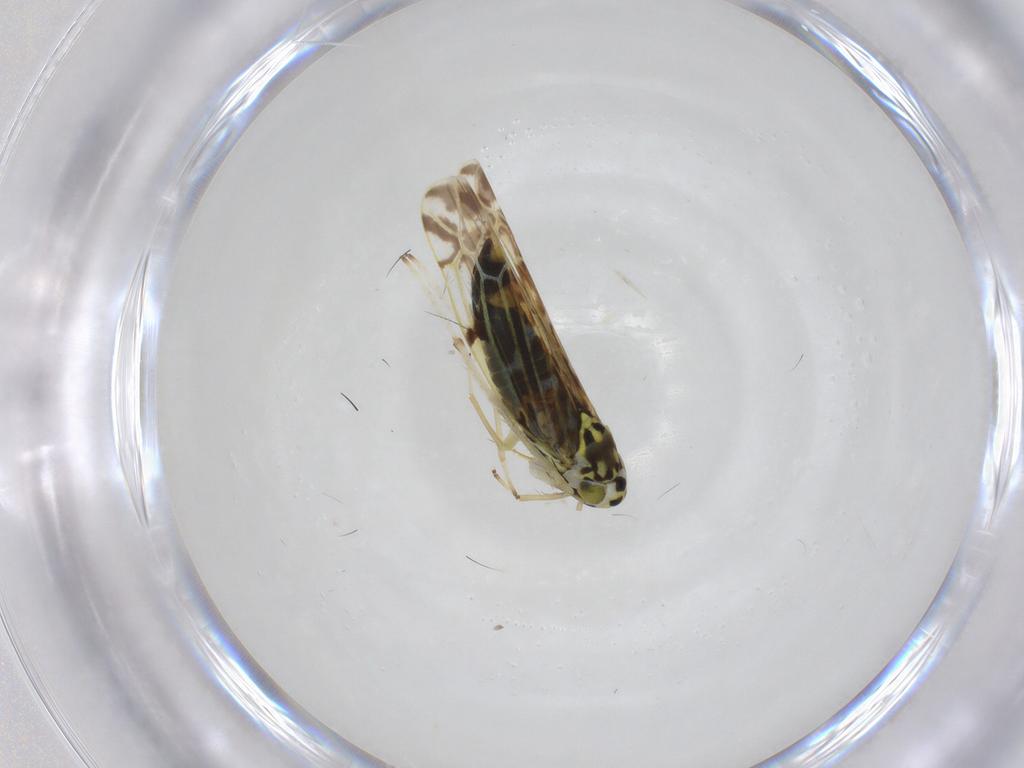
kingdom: Animalia
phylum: Arthropoda
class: Insecta
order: Hemiptera
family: Cicadellidae
